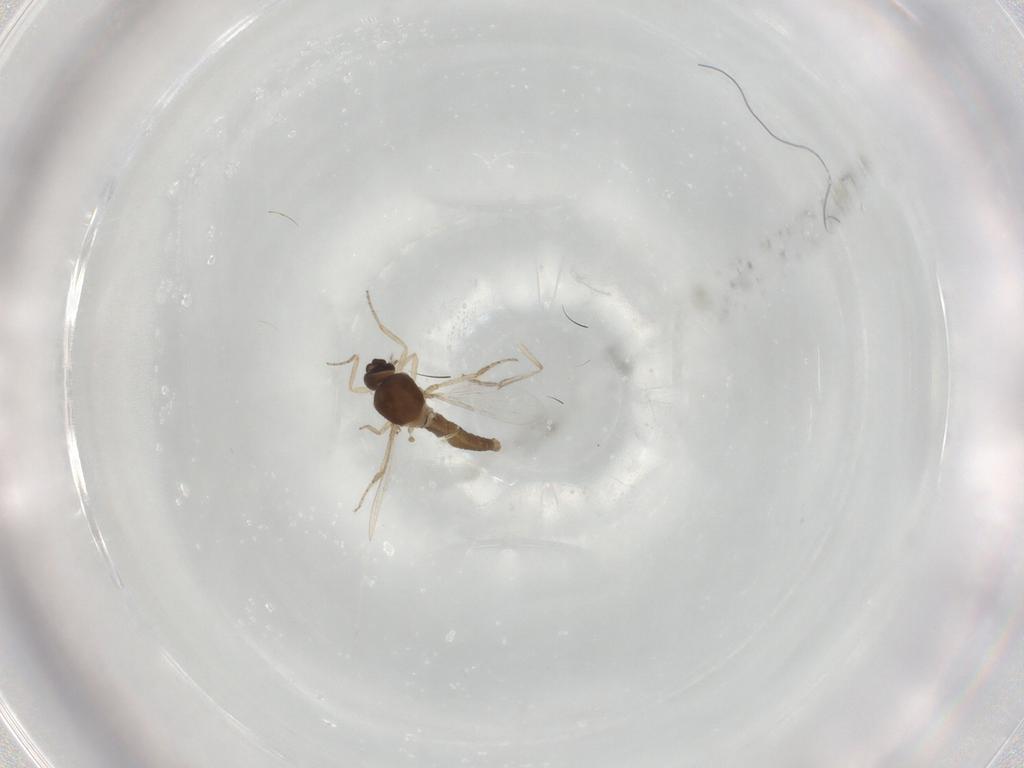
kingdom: Animalia
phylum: Arthropoda
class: Insecta
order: Diptera
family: Ceratopogonidae
